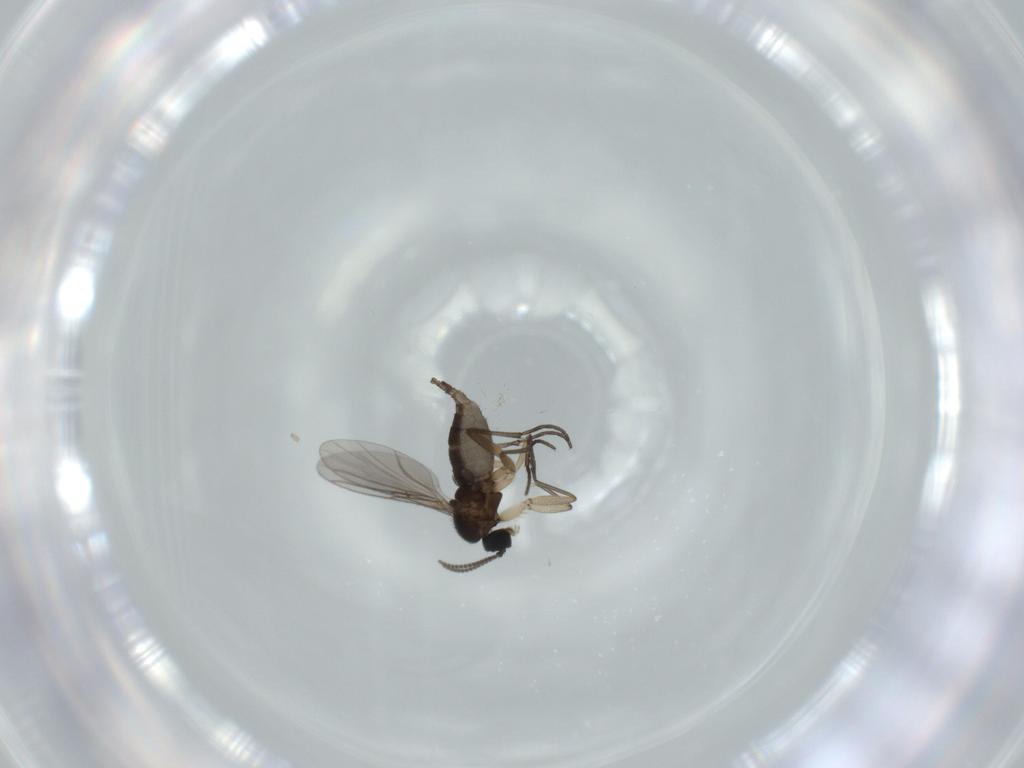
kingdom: Animalia
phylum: Arthropoda
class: Insecta
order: Diptera
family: Sciaridae
